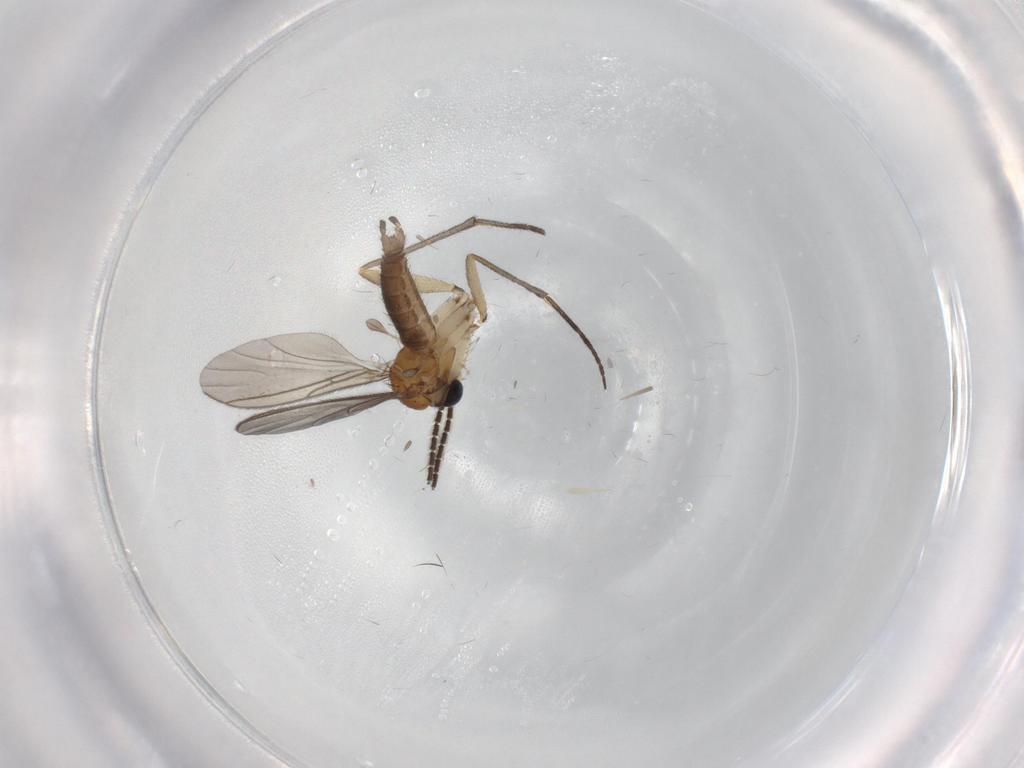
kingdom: Animalia
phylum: Arthropoda
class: Insecta
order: Diptera
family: Sciaridae
